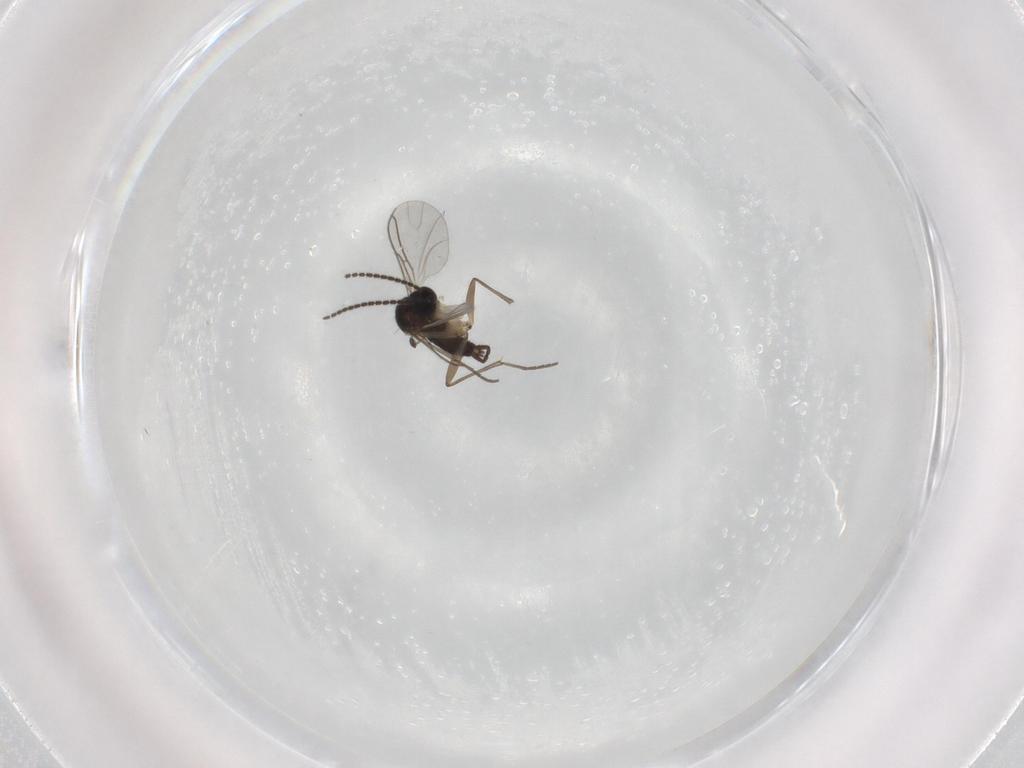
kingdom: Animalia
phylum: Arthropoda
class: Insecta
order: Diptera
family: Sciaridae
